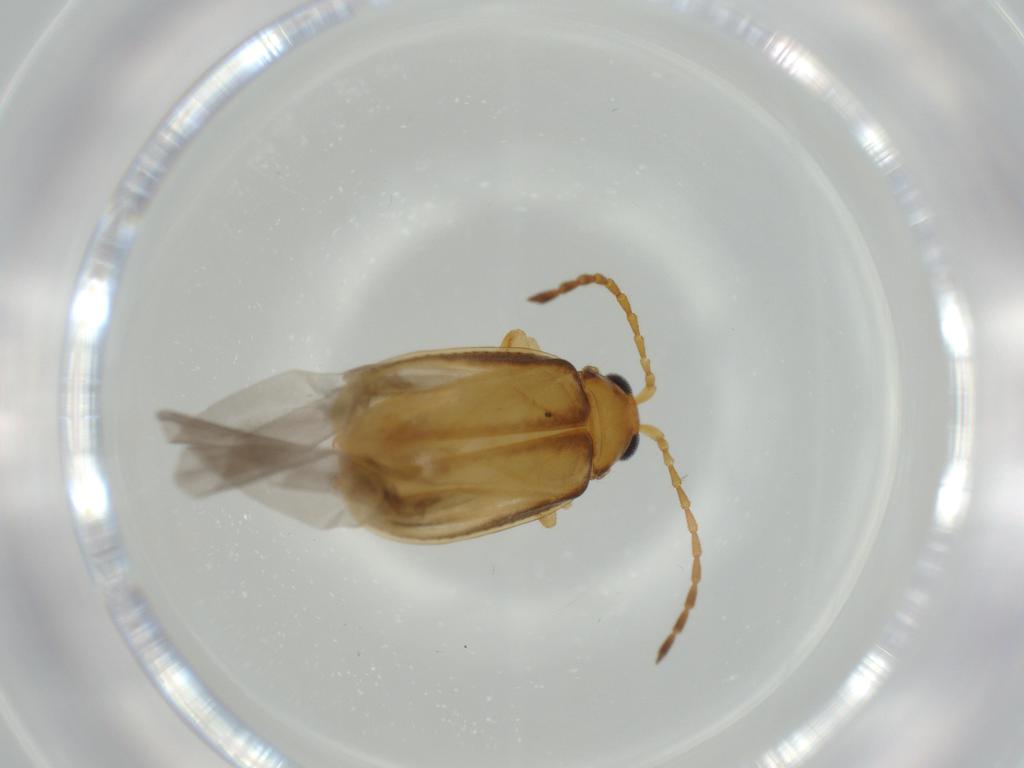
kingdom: Animalia
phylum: Arthropoda
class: Insecta
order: Coleoptera
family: Chrysomelidae
